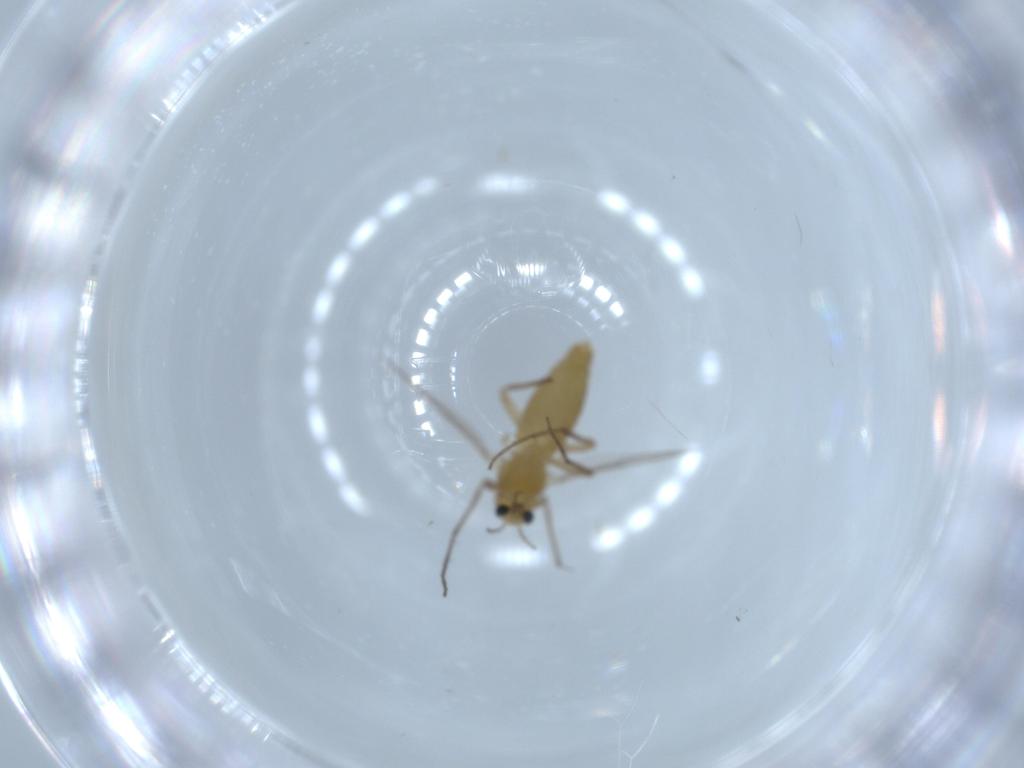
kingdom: Animalia
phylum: Arthropoda
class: Insecta
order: Diptera
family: Chironomidae
